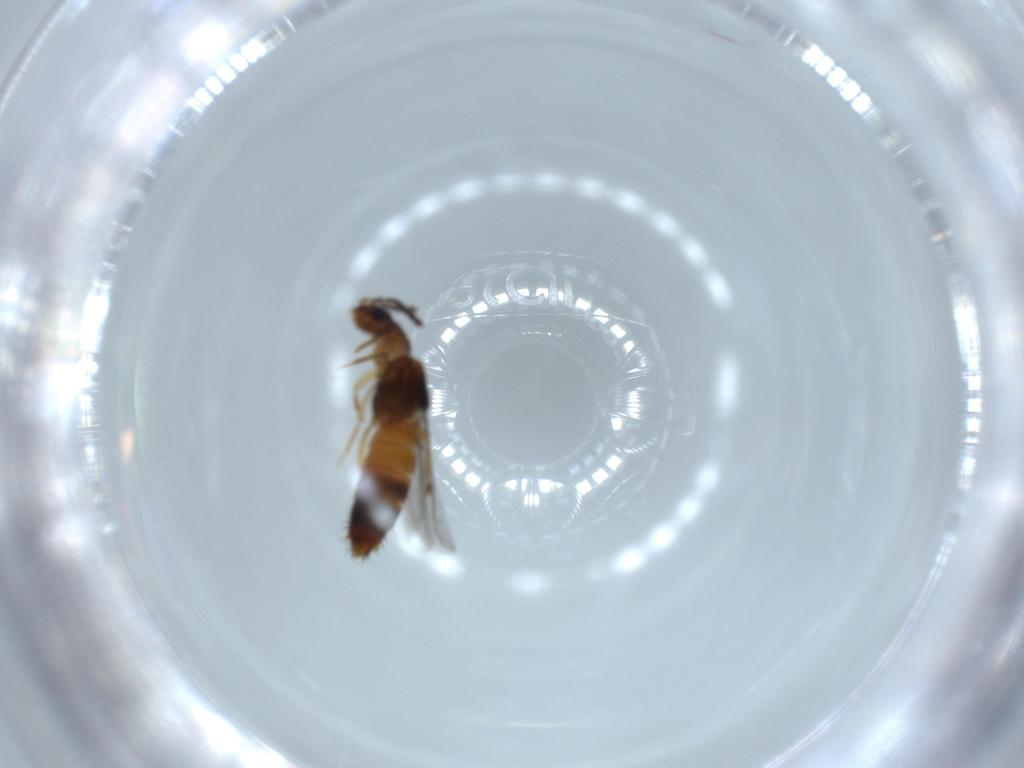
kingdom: Animalia
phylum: Arthropoda
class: Insecta
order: Coleoptera
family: Staphylinidae
